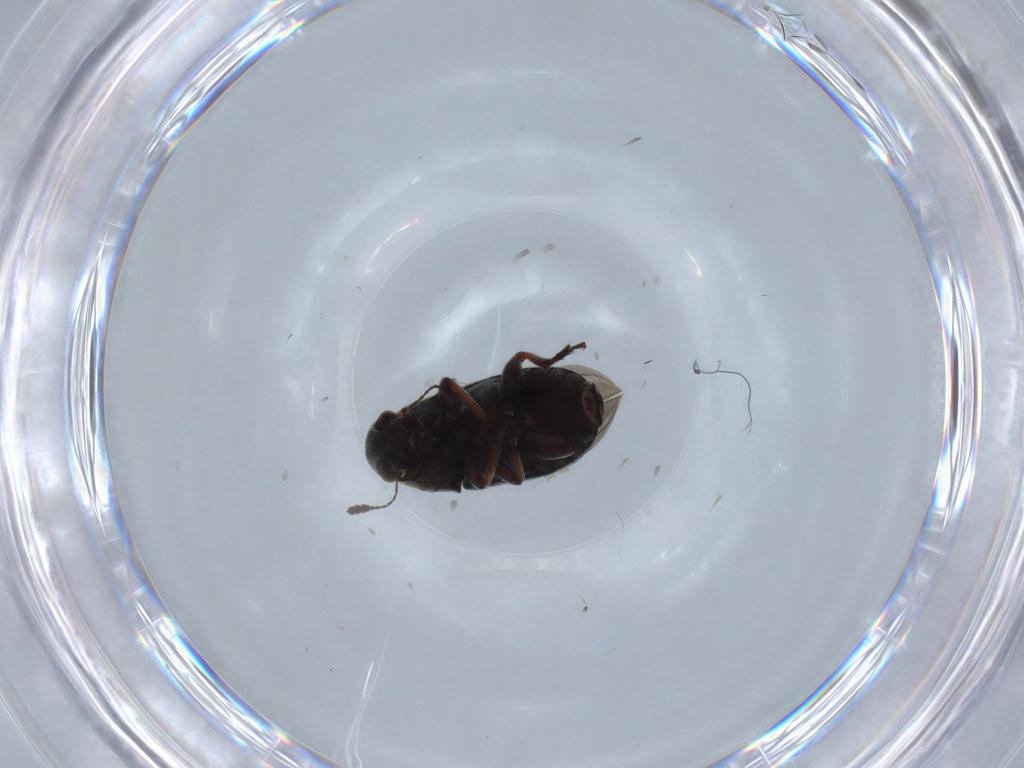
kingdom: Animalia
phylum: Arthropoda
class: Insecta
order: Coleoptera
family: Anthribidae
